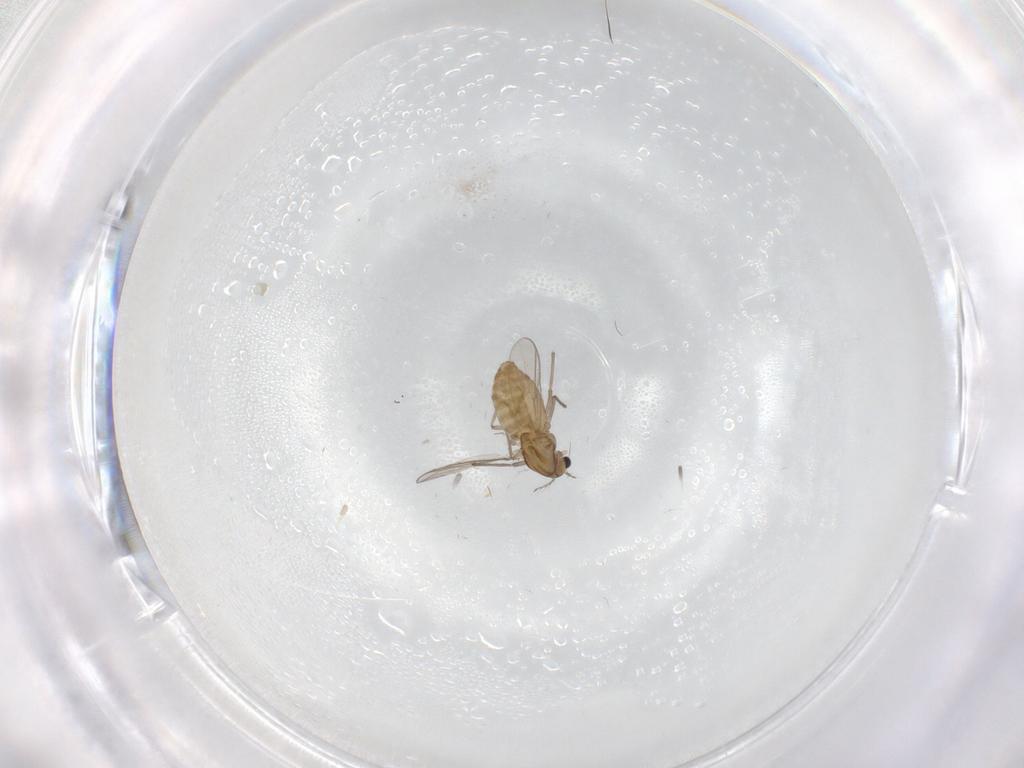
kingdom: Animalia
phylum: Arthropoda
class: Insecta
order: Diptera
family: Chironomidae
